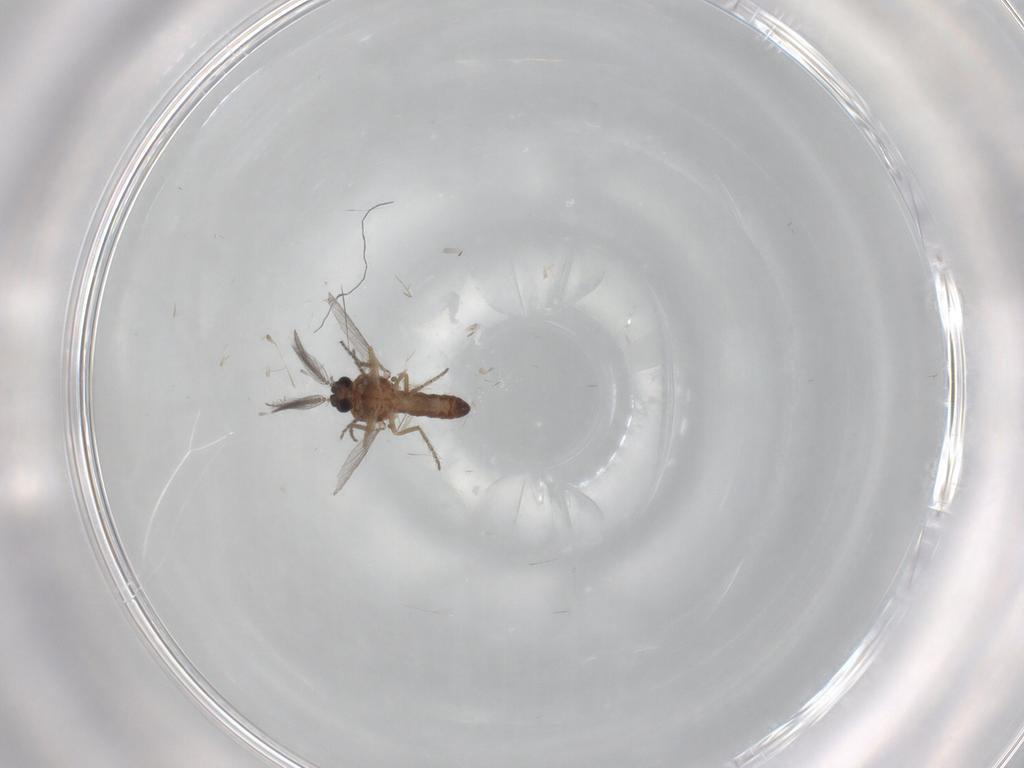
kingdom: Animalia
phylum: Arthropoda
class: Insecta
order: Diptera
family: Ceratopogonidae
